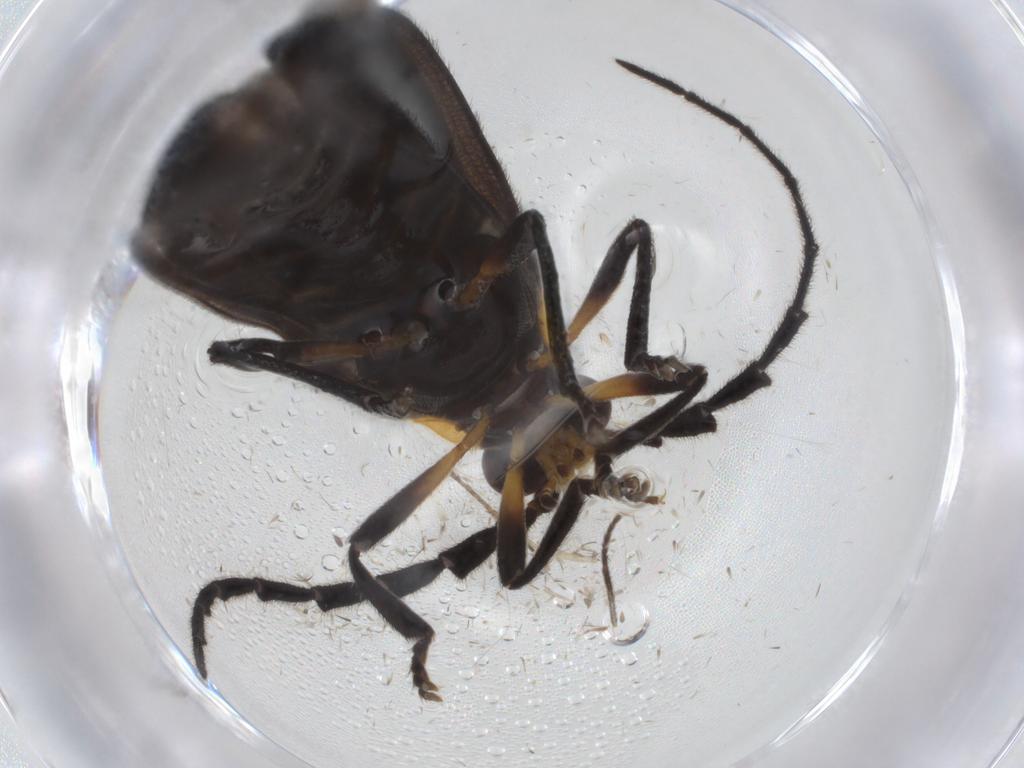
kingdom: Animalia
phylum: Arthropoda
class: Insecta
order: Coleoptera
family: Lycidae
